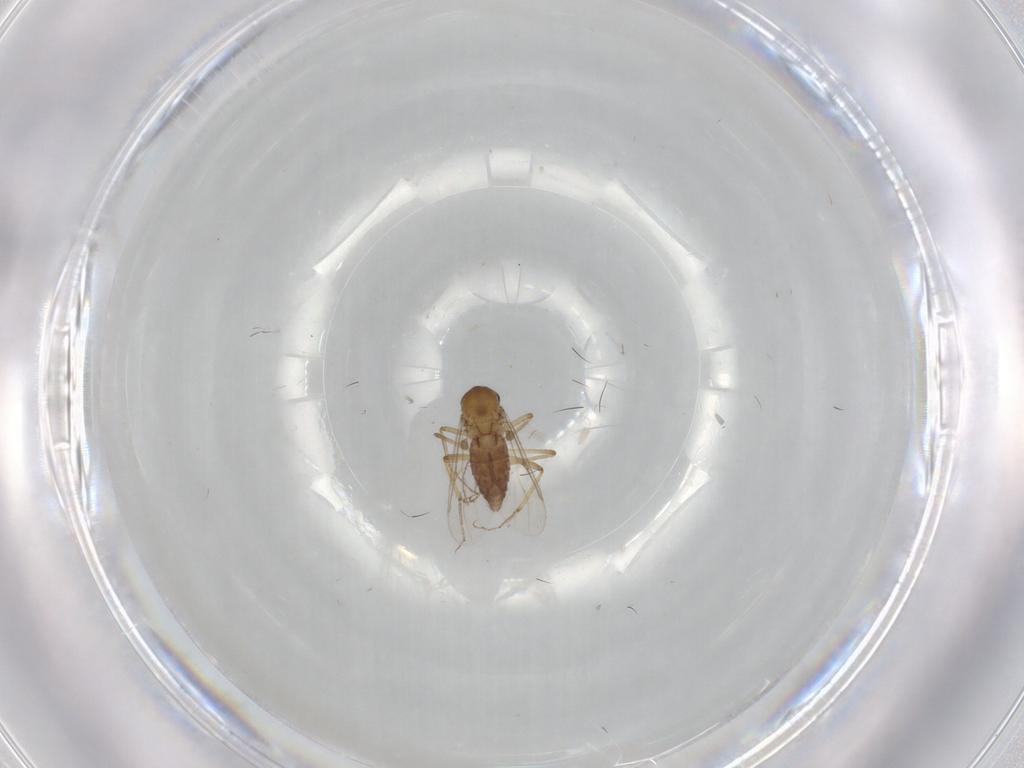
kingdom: Animalia
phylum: Arthropoda
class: Insecta
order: Diptera
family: Ceratopogonidae
